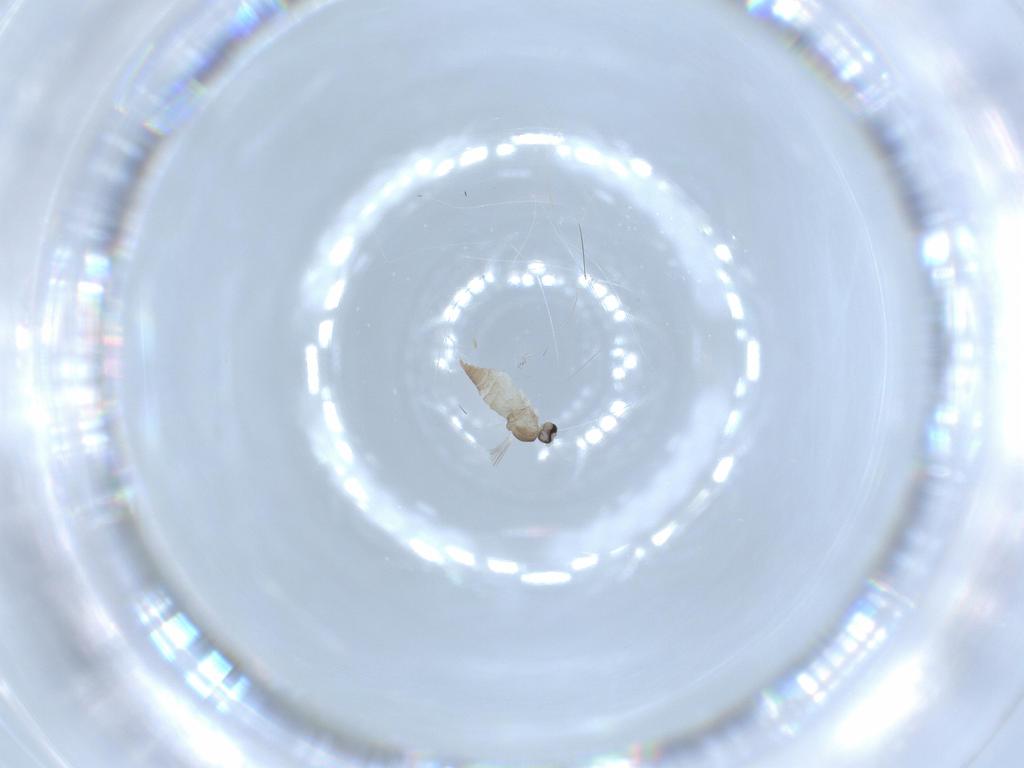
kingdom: Animalia
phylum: Arthropoda
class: Insecta
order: Diptera
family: Cecidomyiidae
